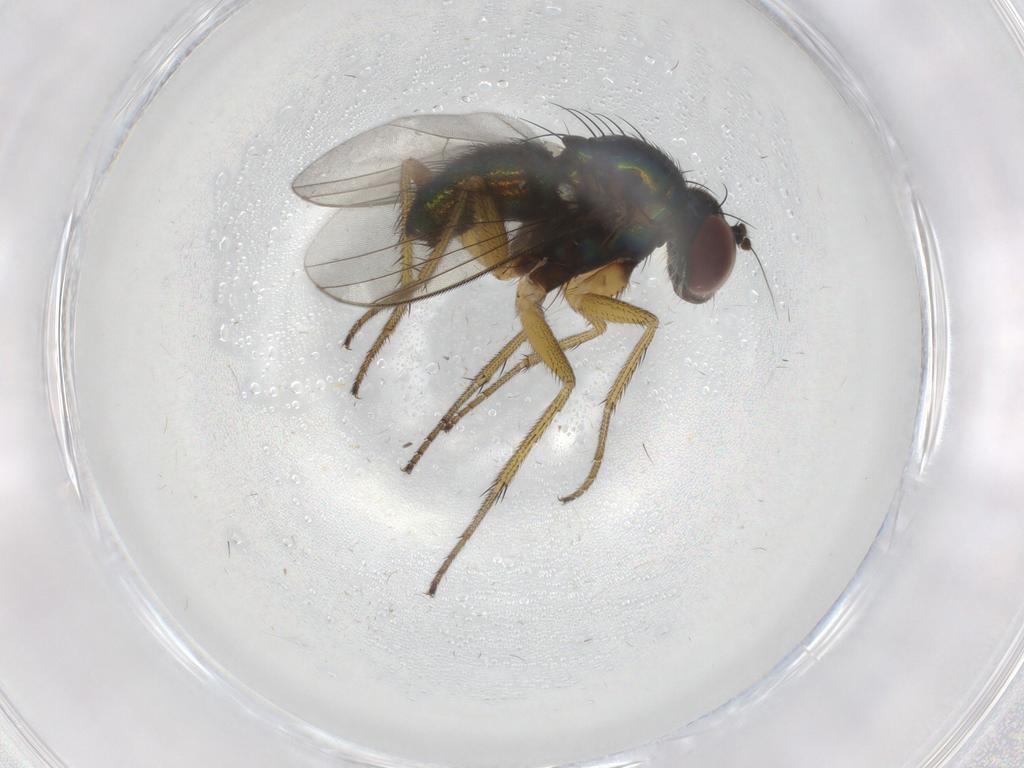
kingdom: Animalia
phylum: Arthropoda
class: Insecta
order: Diptera
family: Dolichopodidae
